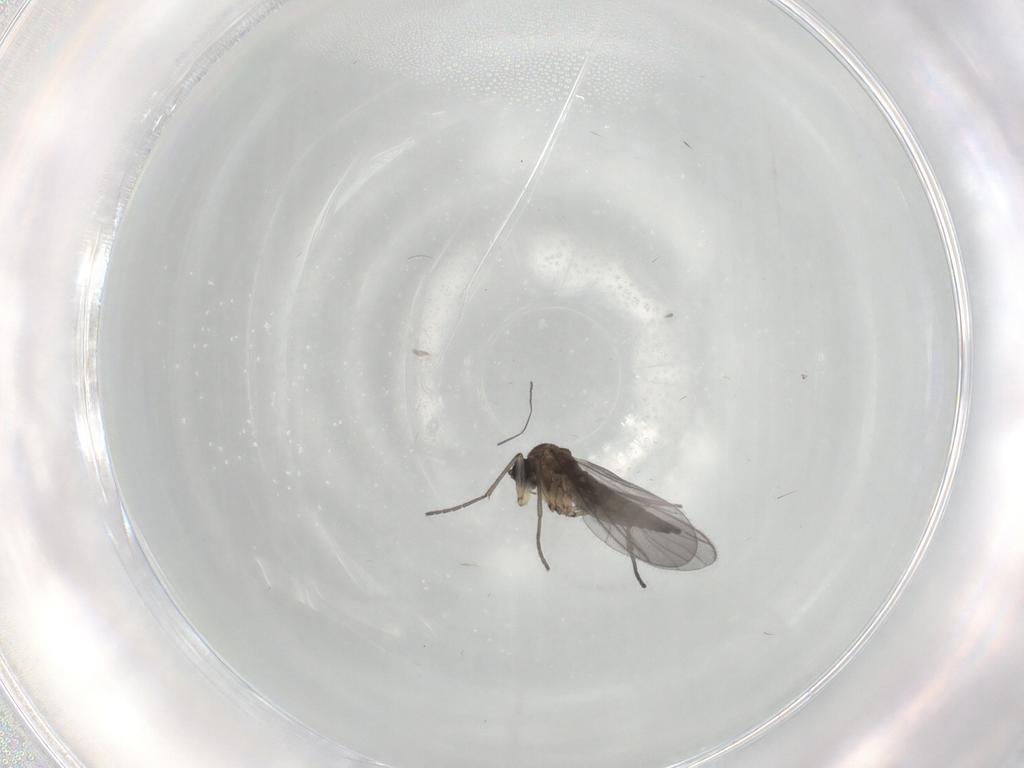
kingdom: Animalia
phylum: Arthropoda
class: Insecta
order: Diptera
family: Sciaridae
